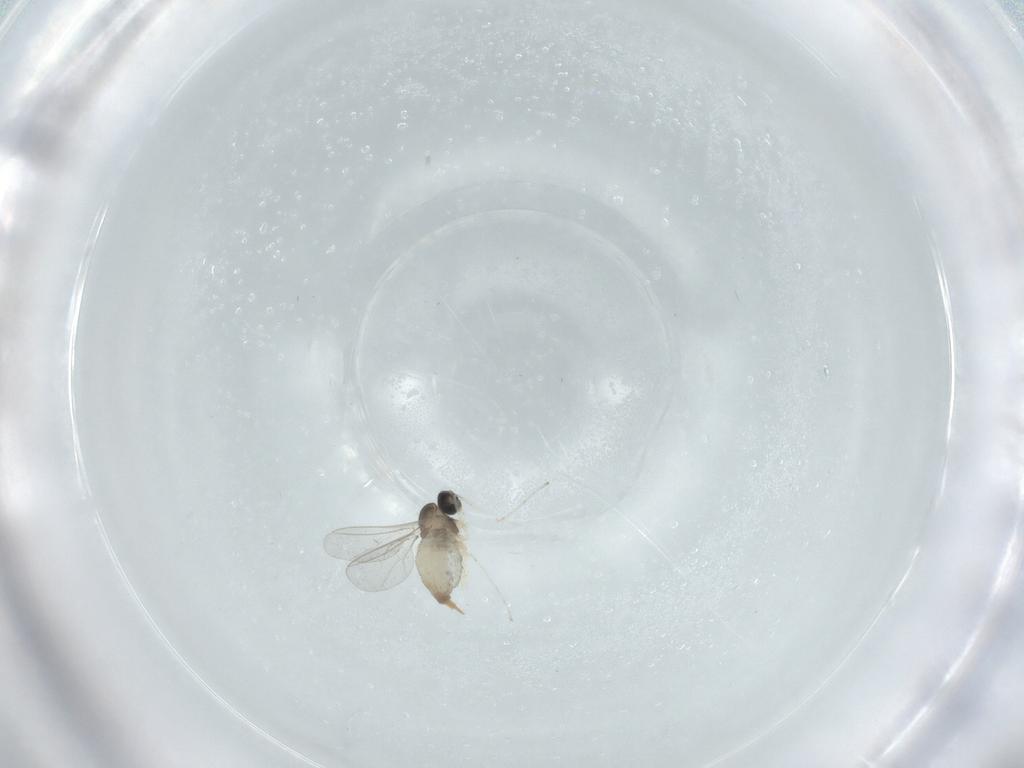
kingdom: Animalia
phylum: Arthropoda
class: Insecta
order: Diptera
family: Cecidomyiidae
